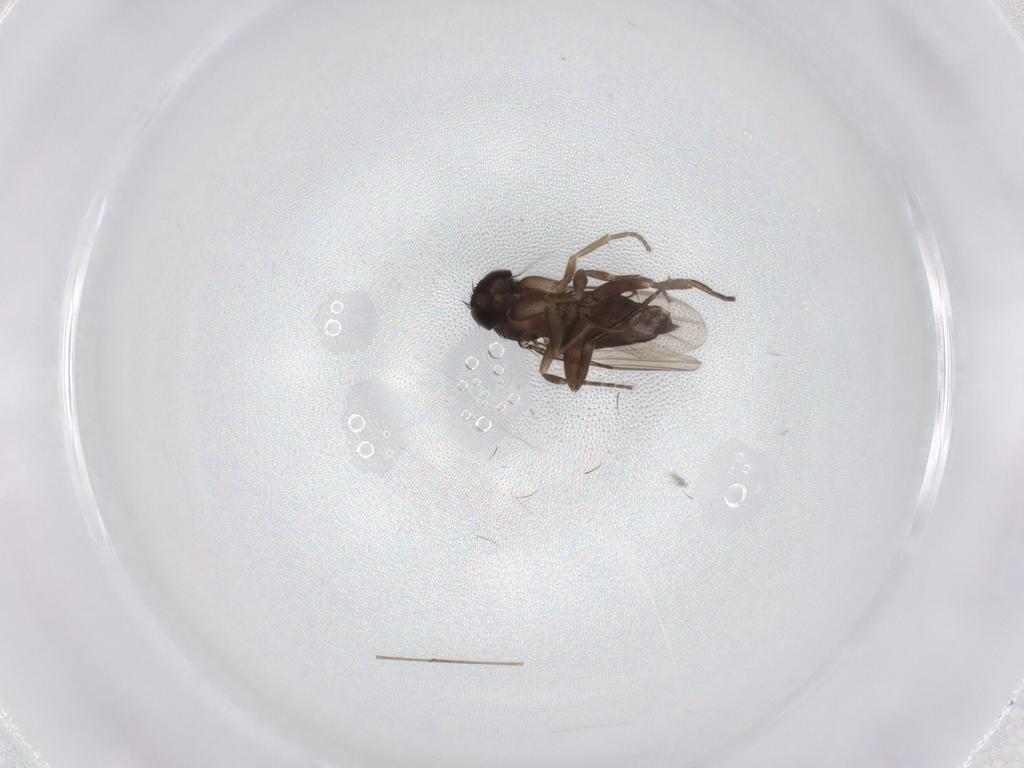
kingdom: Animalia
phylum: Arthropoda
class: Insecta
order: Diptera
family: Phoridae
